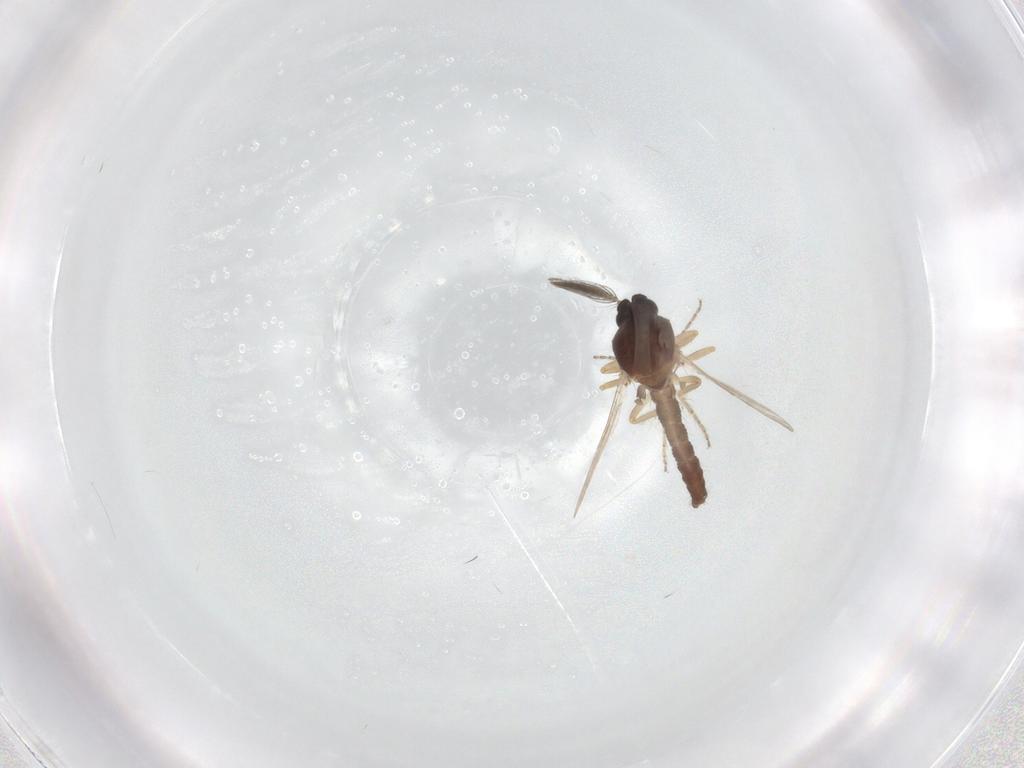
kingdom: Animalia
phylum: Arthropoda
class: Insecta
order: Diptera
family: Ceratopogonidae
